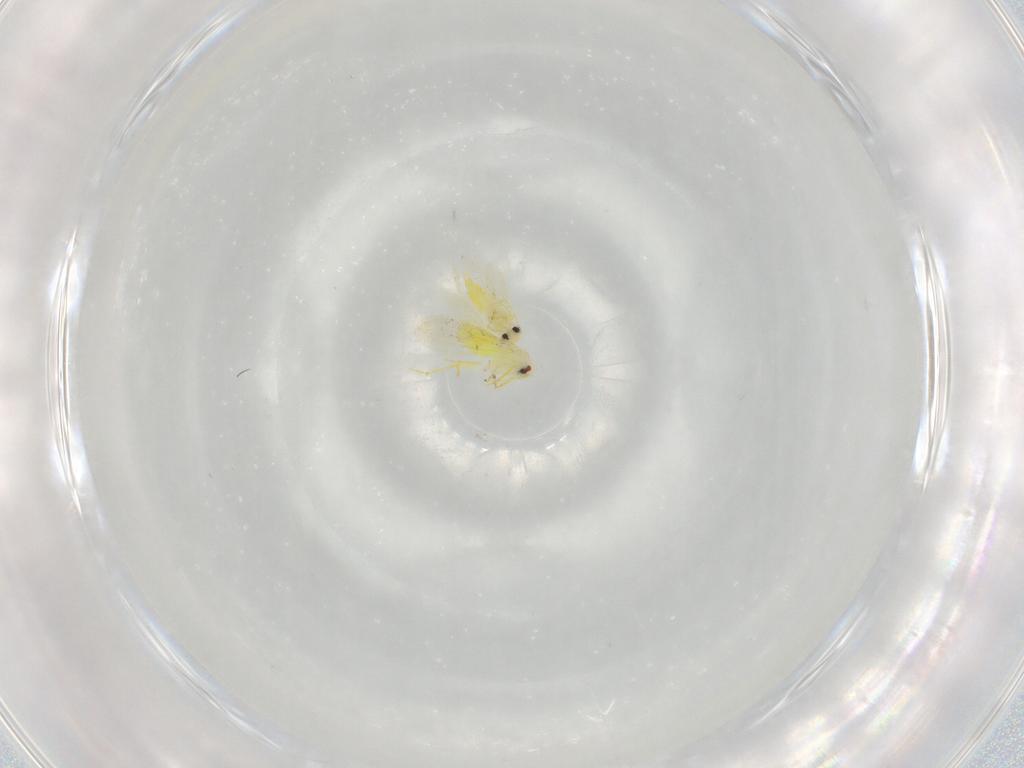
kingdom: Animalia
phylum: Arthropoda
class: Insecta
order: Hemiptera
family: Aleyrodidae
